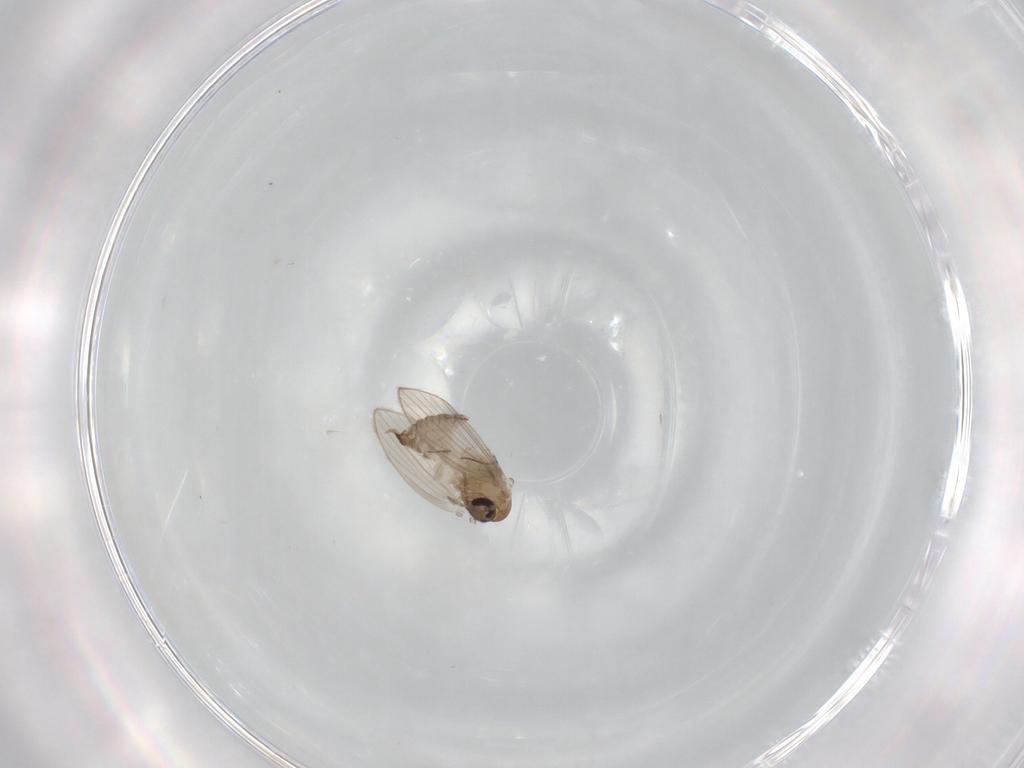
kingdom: Animalia
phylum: Arthropoda
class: Insecta
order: Diptera
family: Psychodidae
